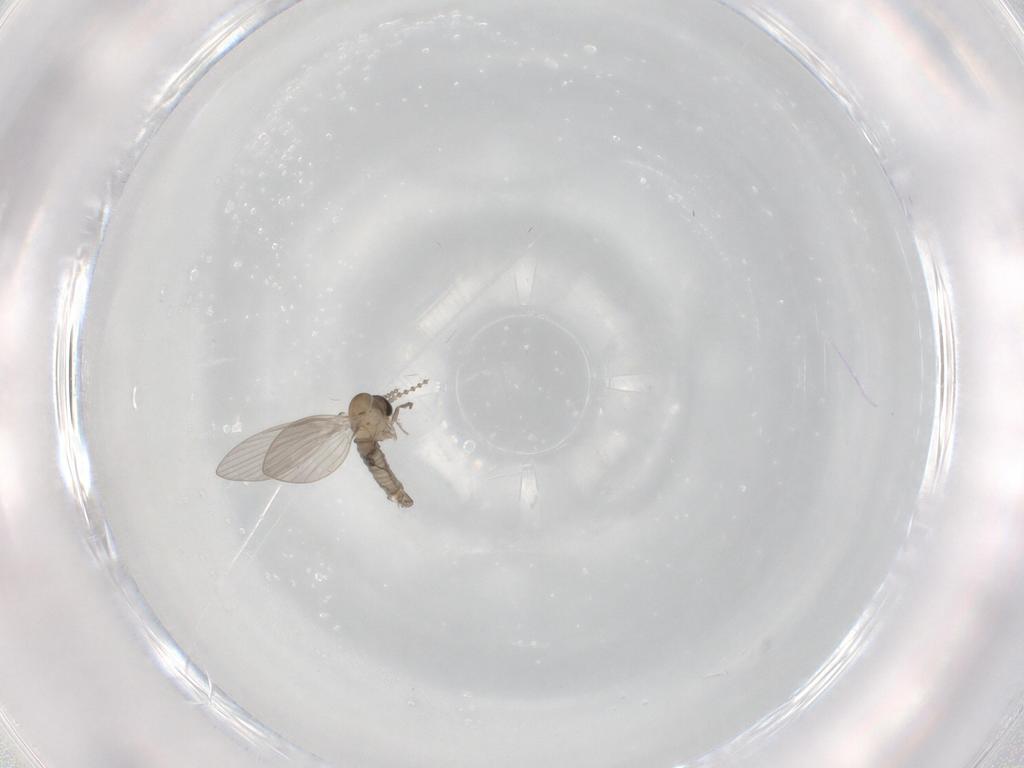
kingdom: Animalia
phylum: Arthropoda
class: Insecta
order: Diptera
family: Psychodidae
